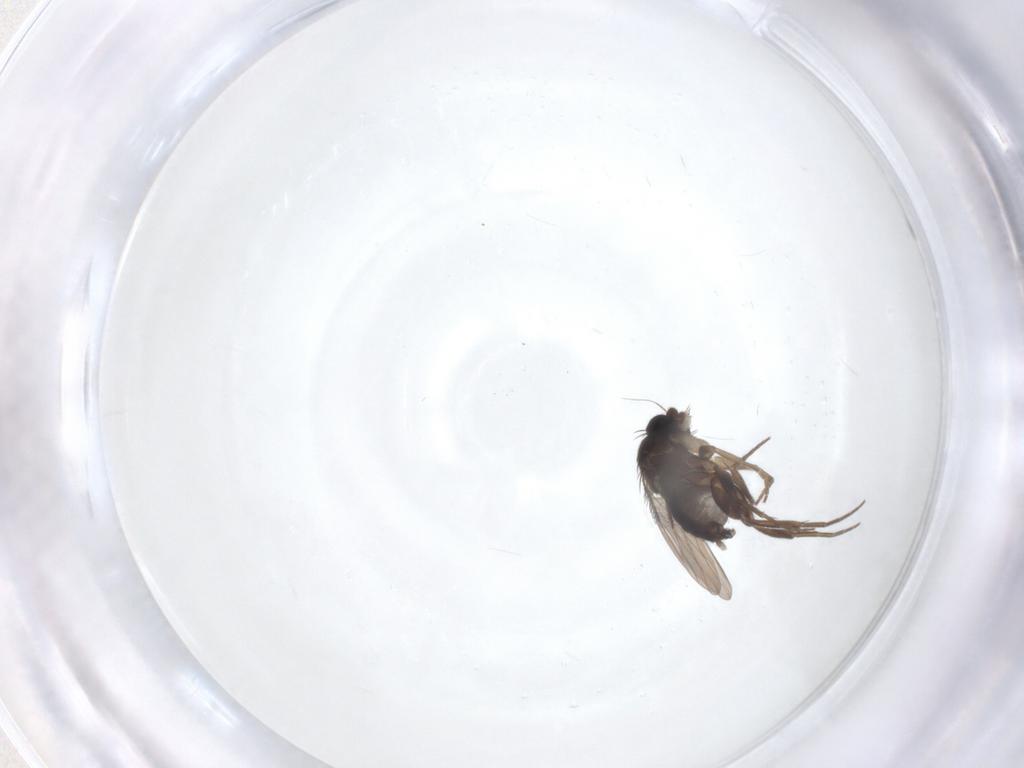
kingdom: Animalia
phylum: Arthropoda
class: Insecta
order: Diptera
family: Phoridae
